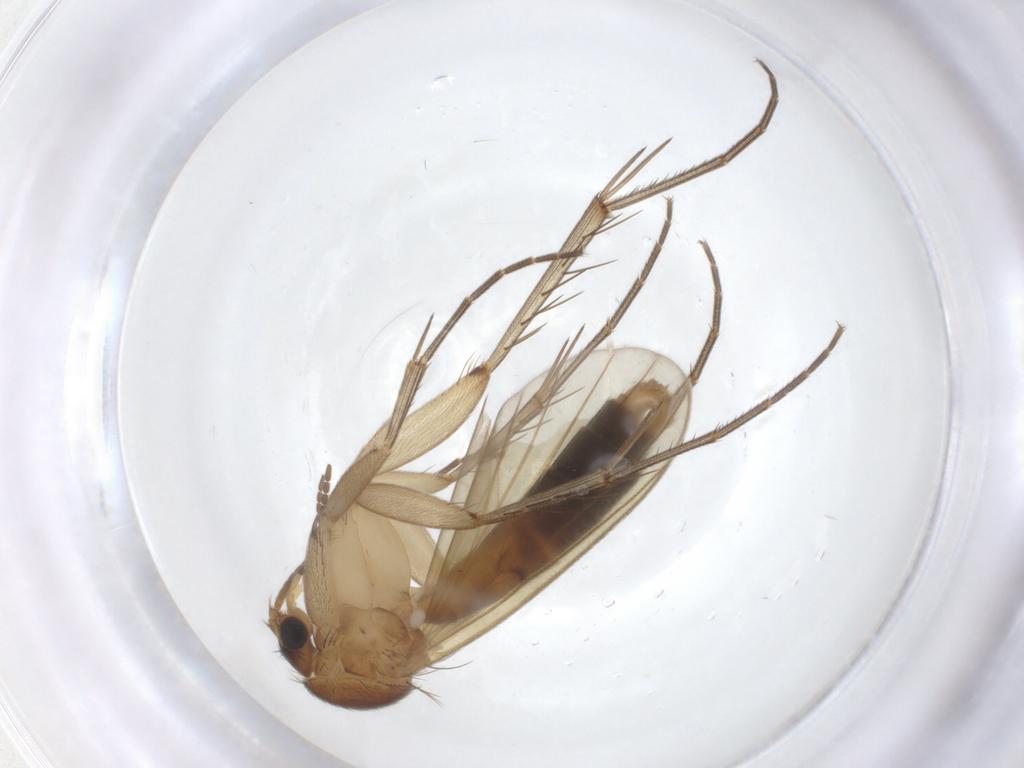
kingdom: Animalia
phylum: Arthropoda
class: Insecta
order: Diptera
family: Mycetophilidae
